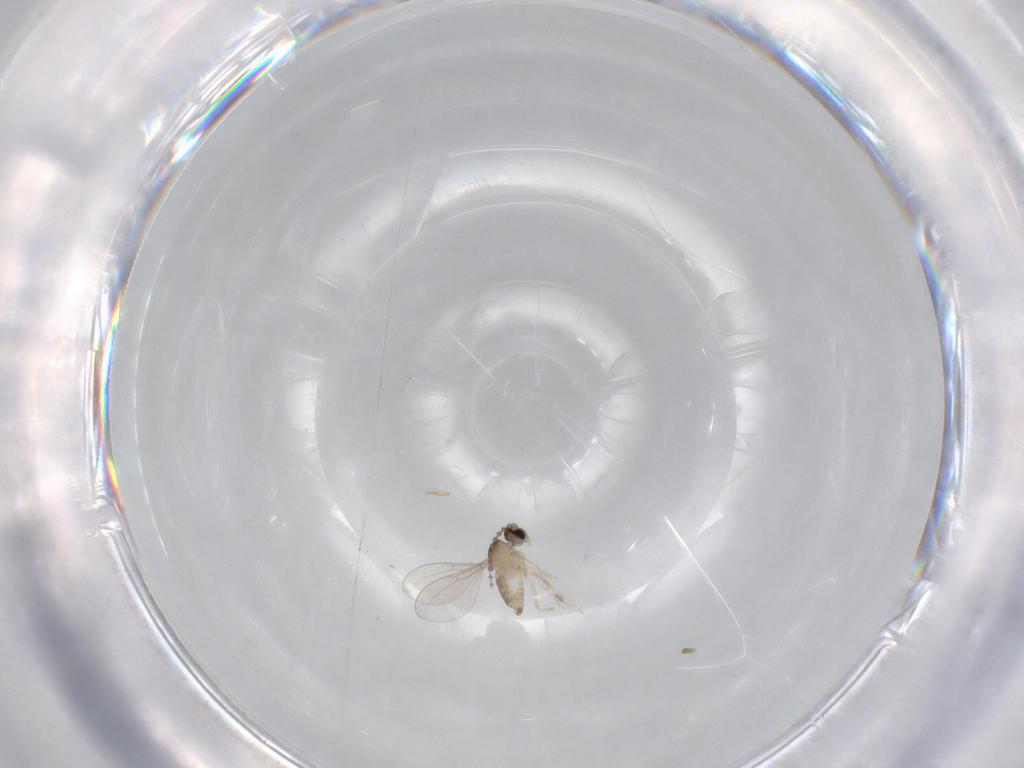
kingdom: Animalia
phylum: Arthropoda
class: Insecta
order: Diptera
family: Cecidomyiidae
